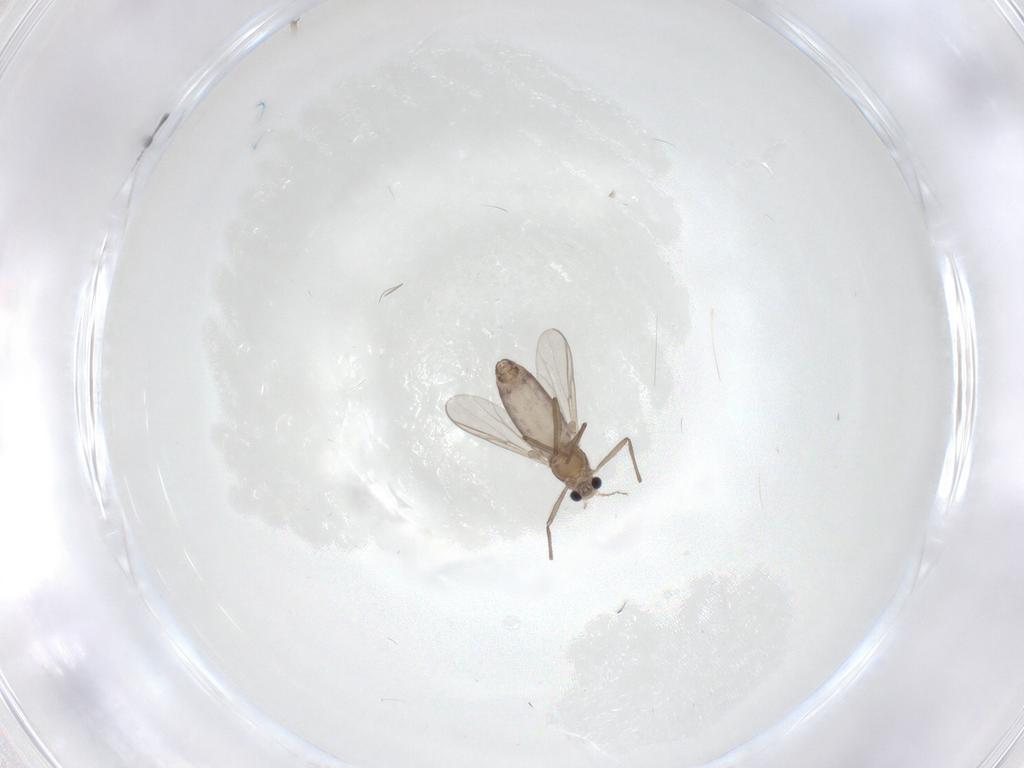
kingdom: Animalia
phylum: Arthropoda
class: Insecta
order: Diptera
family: Chironomidae
